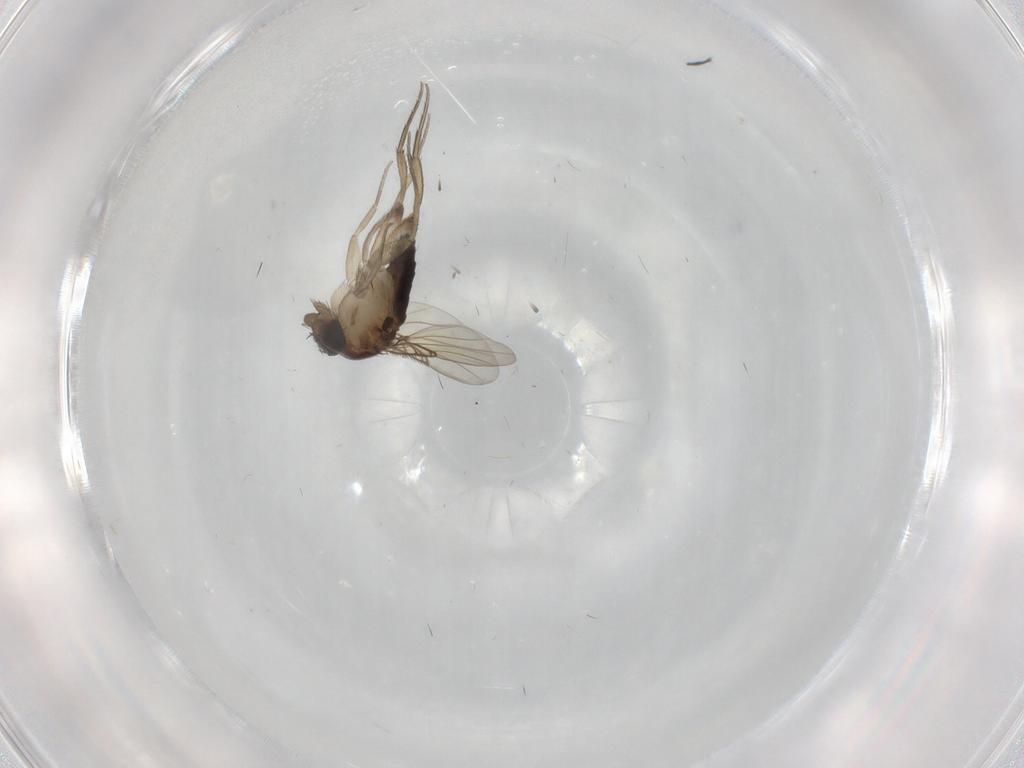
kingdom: Animalia
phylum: Arthropoda
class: Insecta
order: Diptera
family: Phoridae
